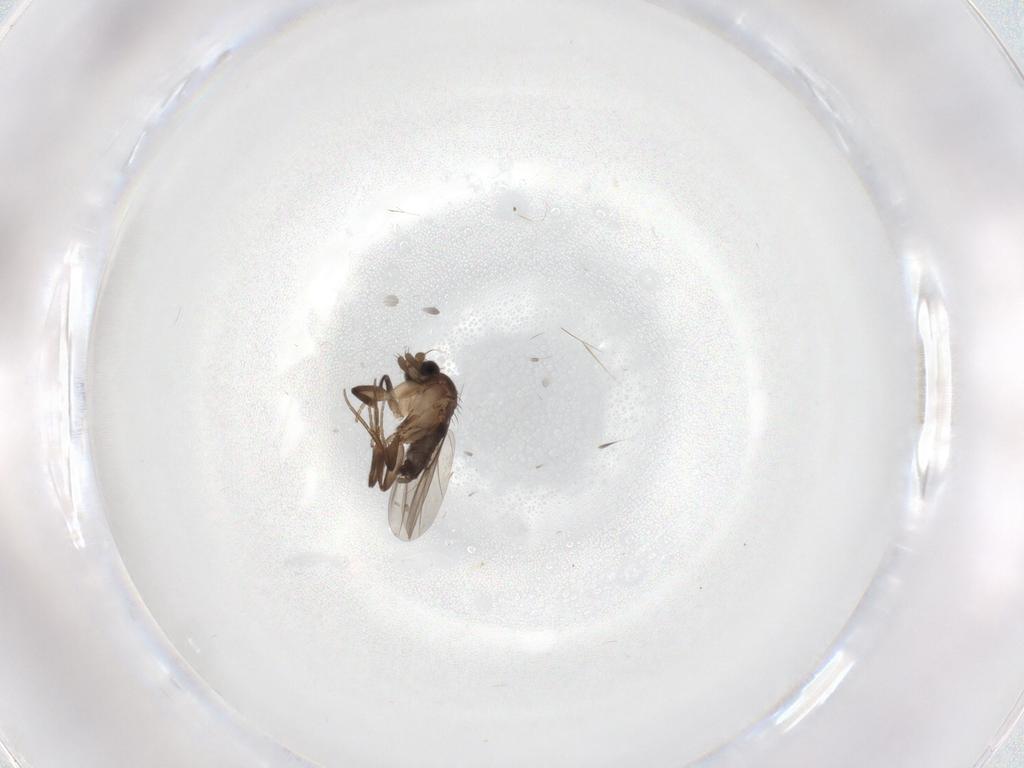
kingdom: Animalia
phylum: Arthropoda
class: Insecta
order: Diptera
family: Phoridae
